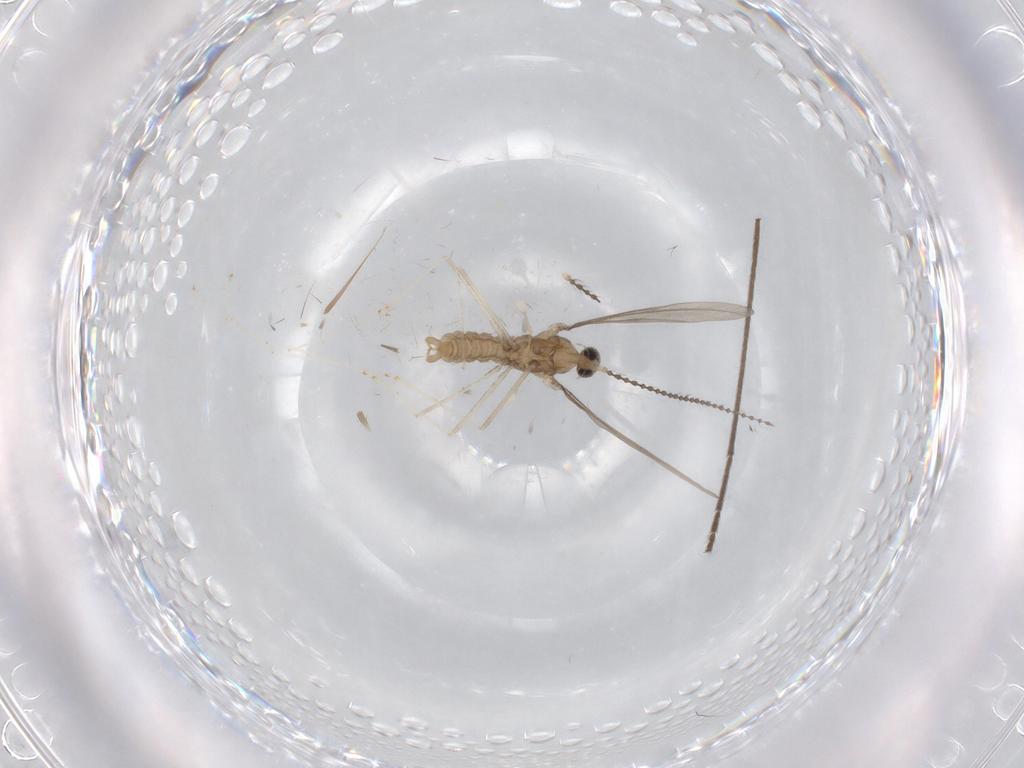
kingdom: Animalia
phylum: Arthropoda
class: Insecta
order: Diptera
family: Cecidomyiidae
